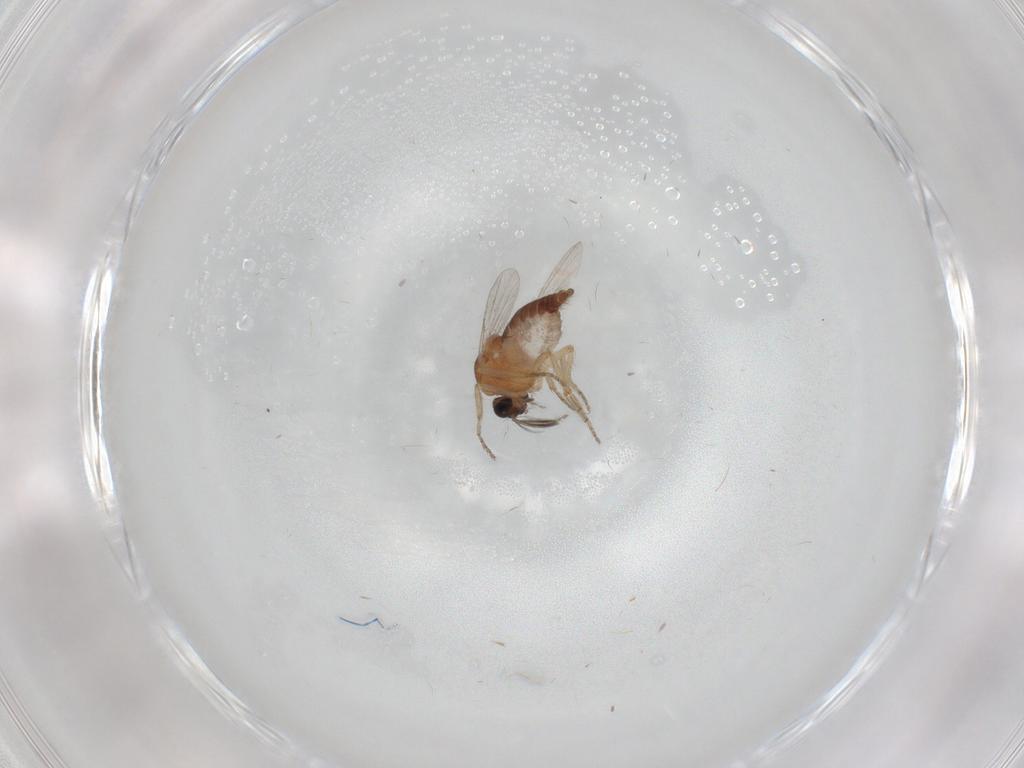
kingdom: Animalia
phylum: Arthropoda
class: Insecta
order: Diptera
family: Ceratopogonidae
